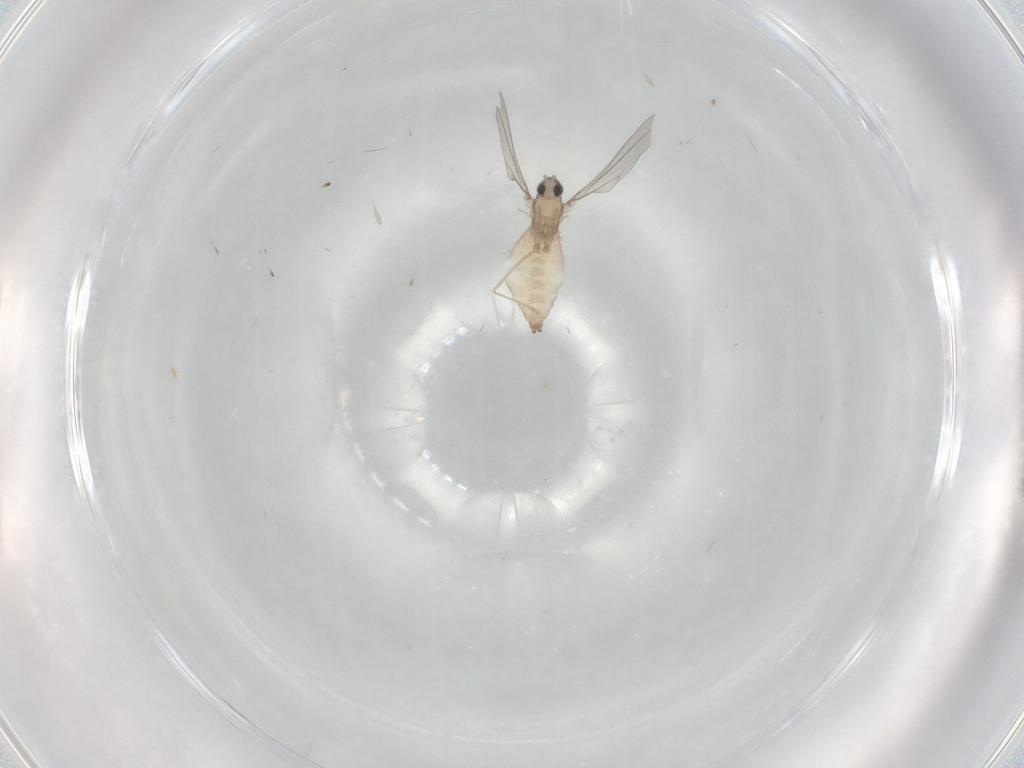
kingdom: Animalia
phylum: Arthropoda
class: Insecta
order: Diptera
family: Cecidomyiidae
